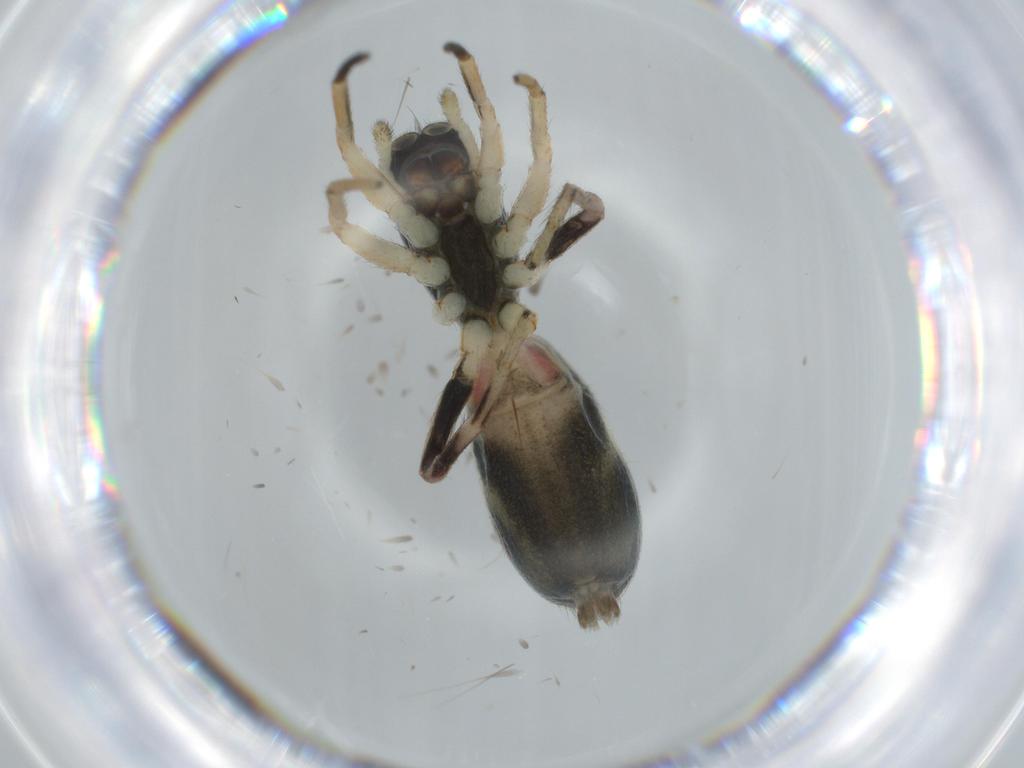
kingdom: Animalia
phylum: Arthropoda
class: Arachnida
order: Araneae
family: Salticidae
